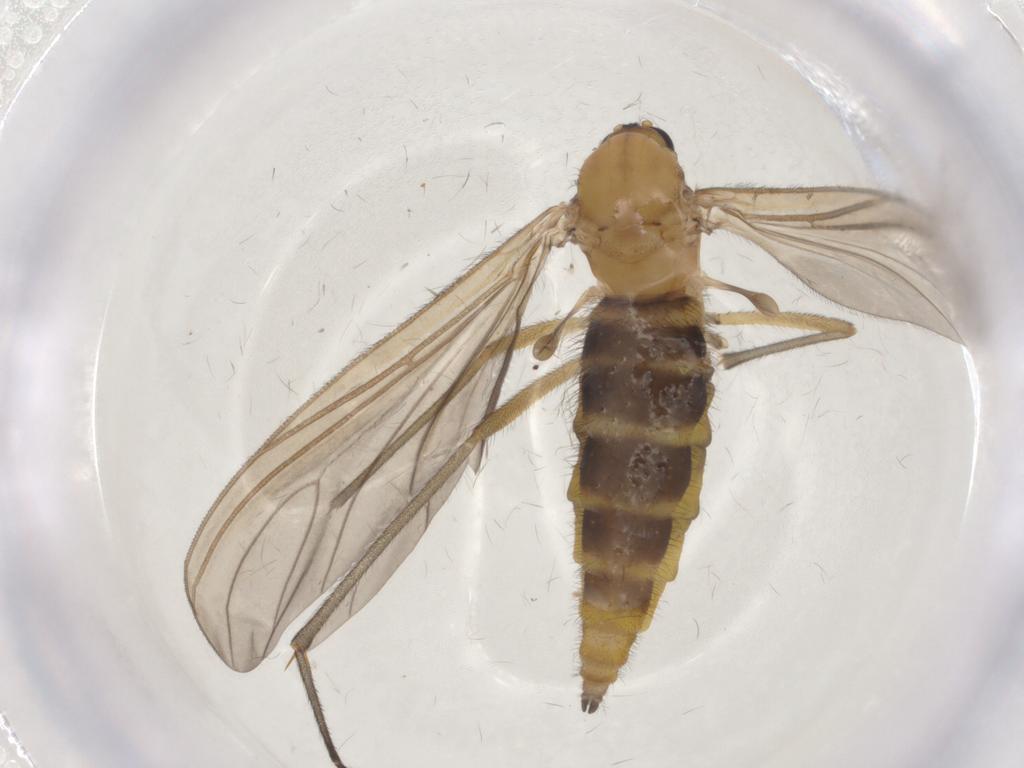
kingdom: Animalia
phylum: Arthropoda
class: Insecta
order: Diptera
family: Sciaridae
